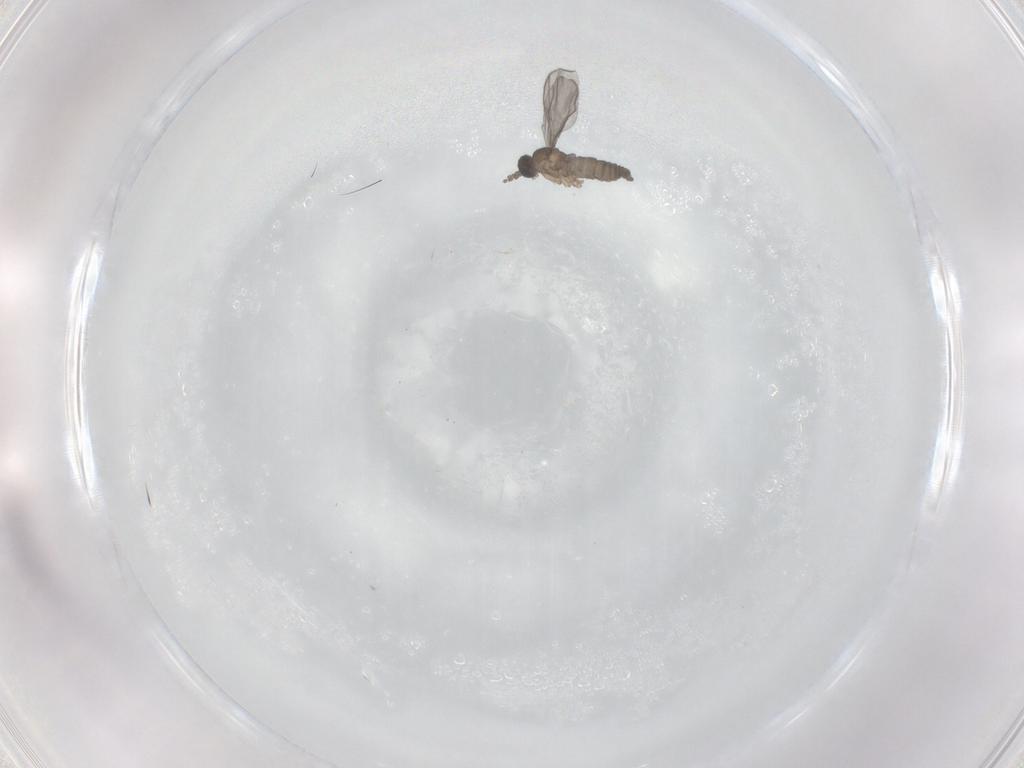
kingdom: Animalia
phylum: Arthropoda
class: Insecta
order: Diptera
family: Sciaridae
